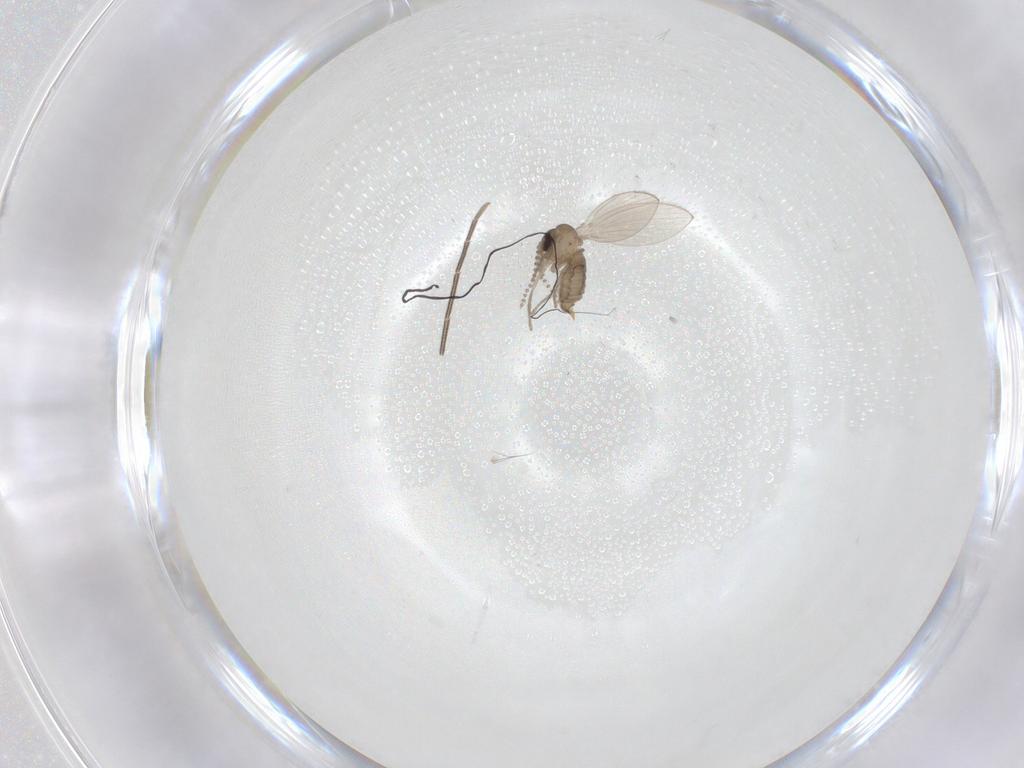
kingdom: Animalia
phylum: Arthropoda
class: Insecta
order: Diptera
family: Psychodidae
